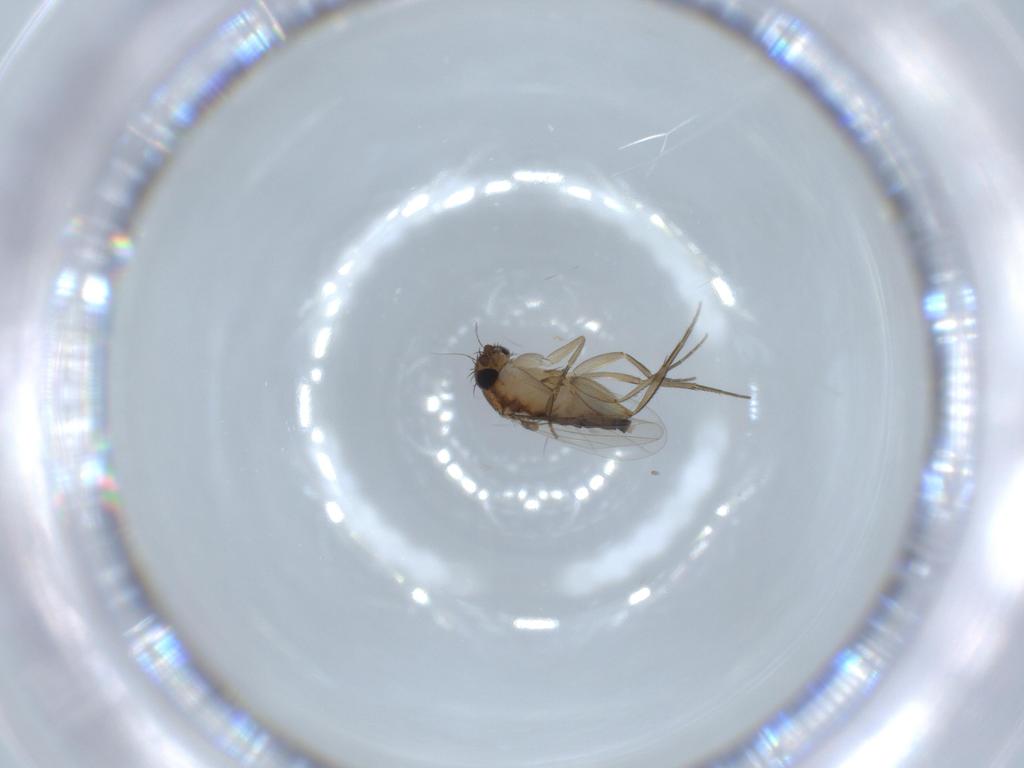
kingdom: Animalia
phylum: Arthropoda
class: Insecta
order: Diptera
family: Phoridae
